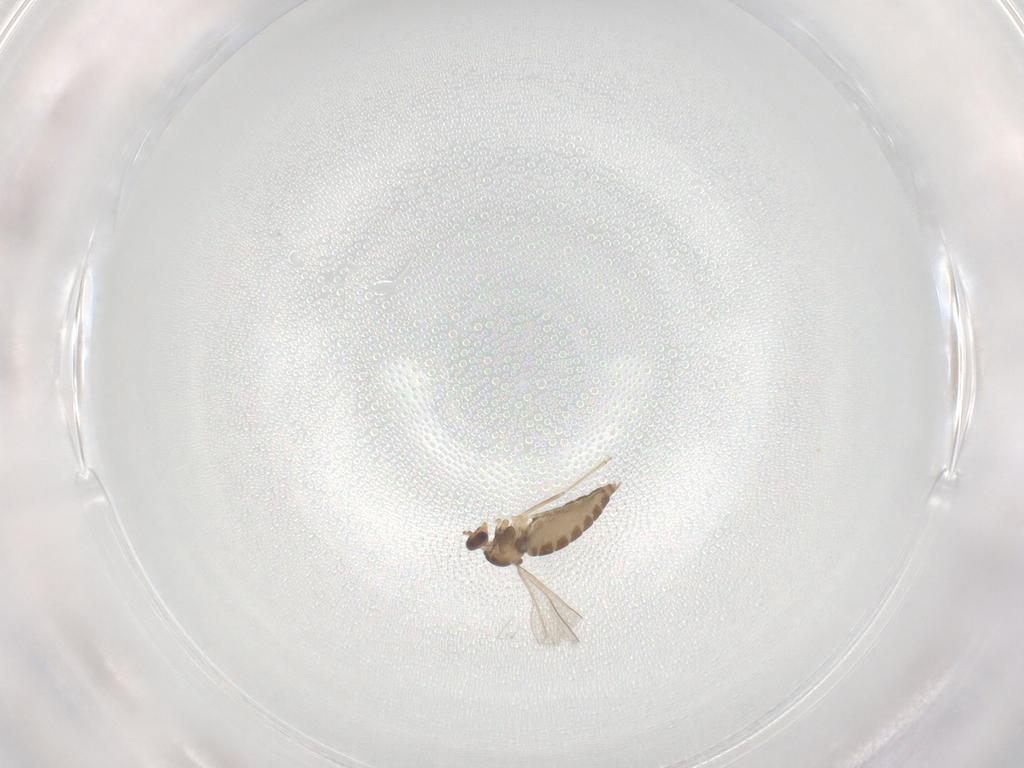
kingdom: Animalia
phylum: Arthropoda
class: Insecta
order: Diptera
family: Cecidomyiidae
